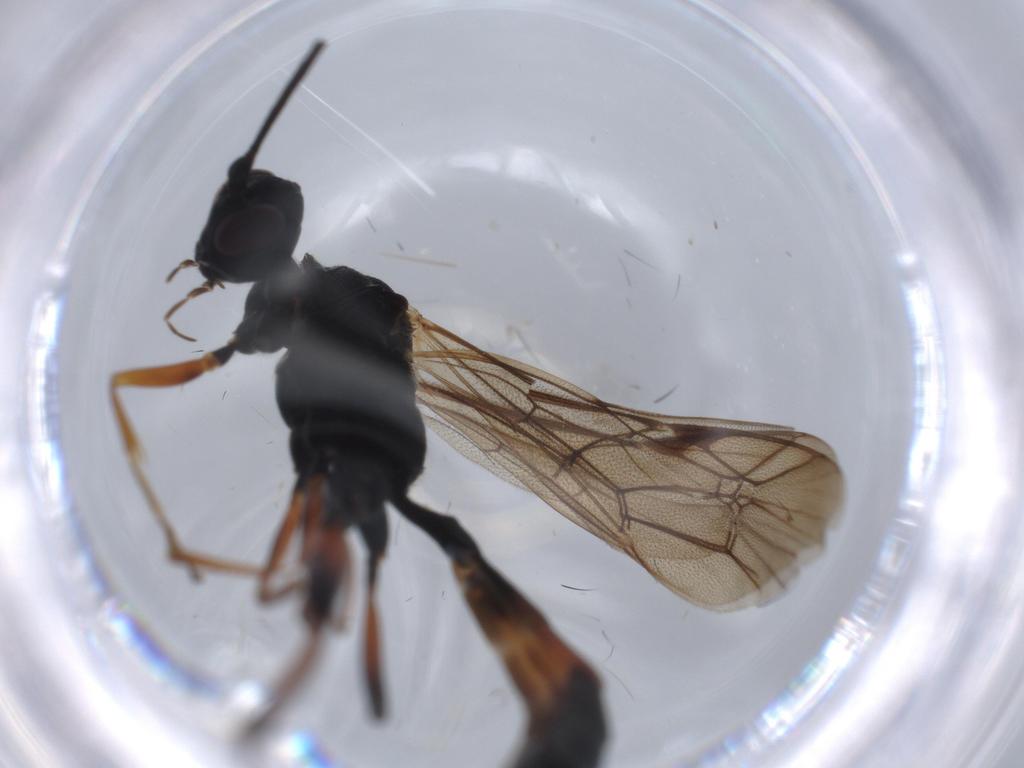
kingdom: Animalia
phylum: Arthropoda
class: Insecta
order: Hymenoptera
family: Ichneumonidae
